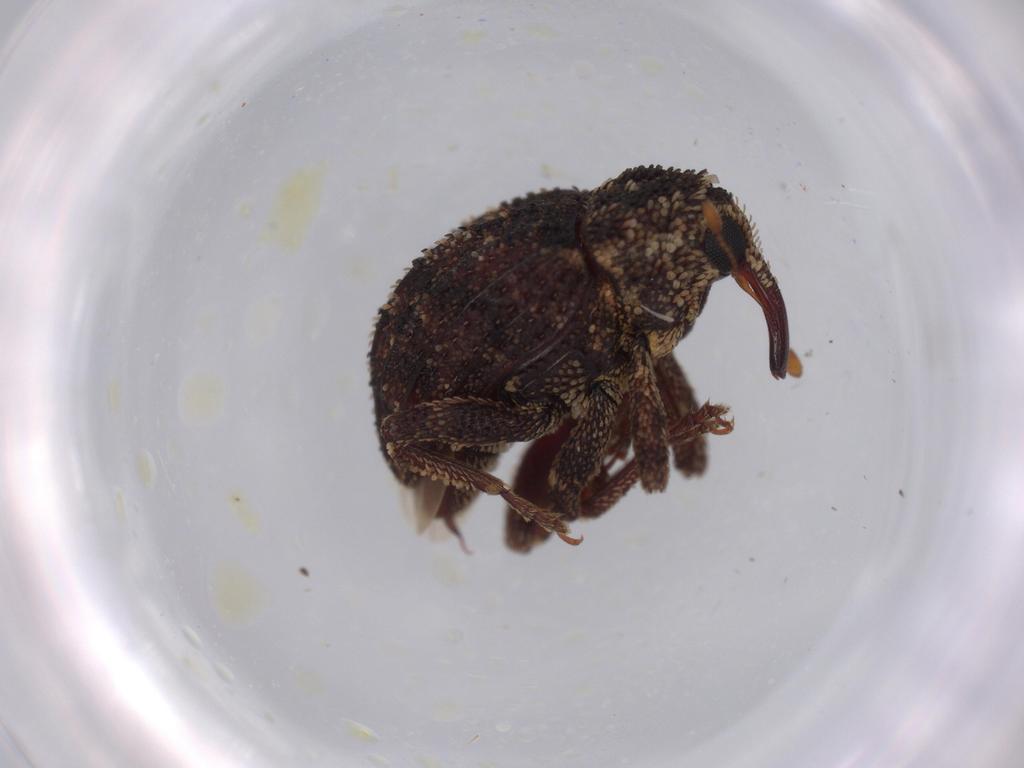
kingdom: Animalia
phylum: Arthropoda
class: Insecta
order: Coleoptera
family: Curculionidae
